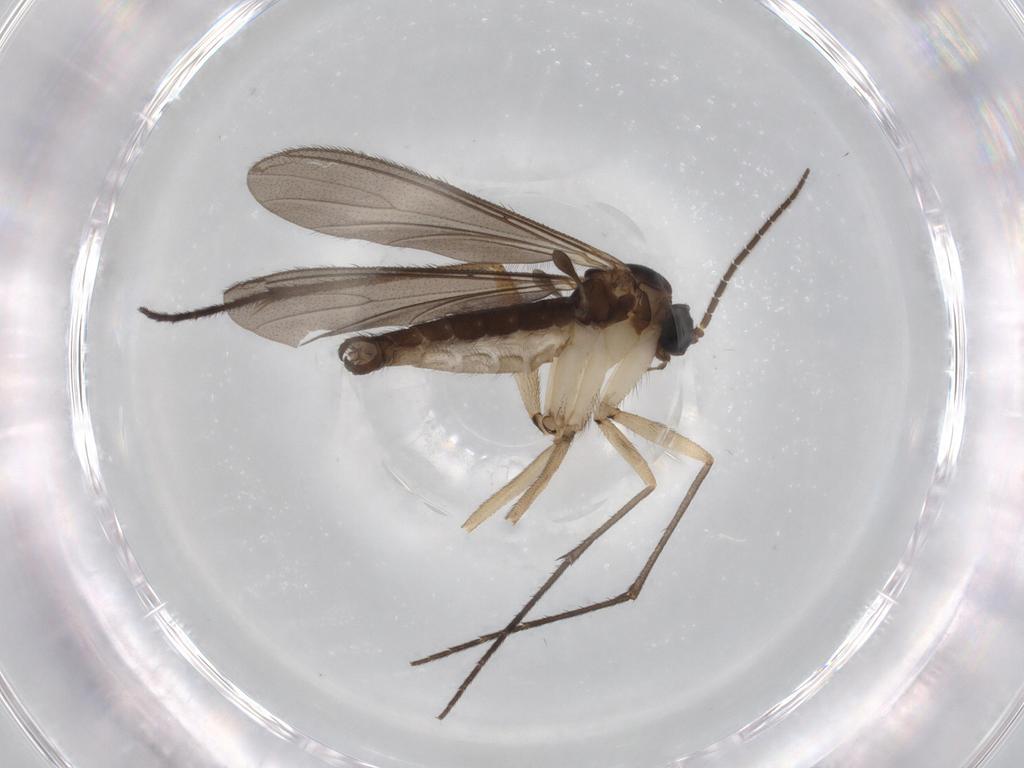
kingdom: Animalia
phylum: Arthropoda
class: Insecta
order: Diptera
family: Sciaridae
